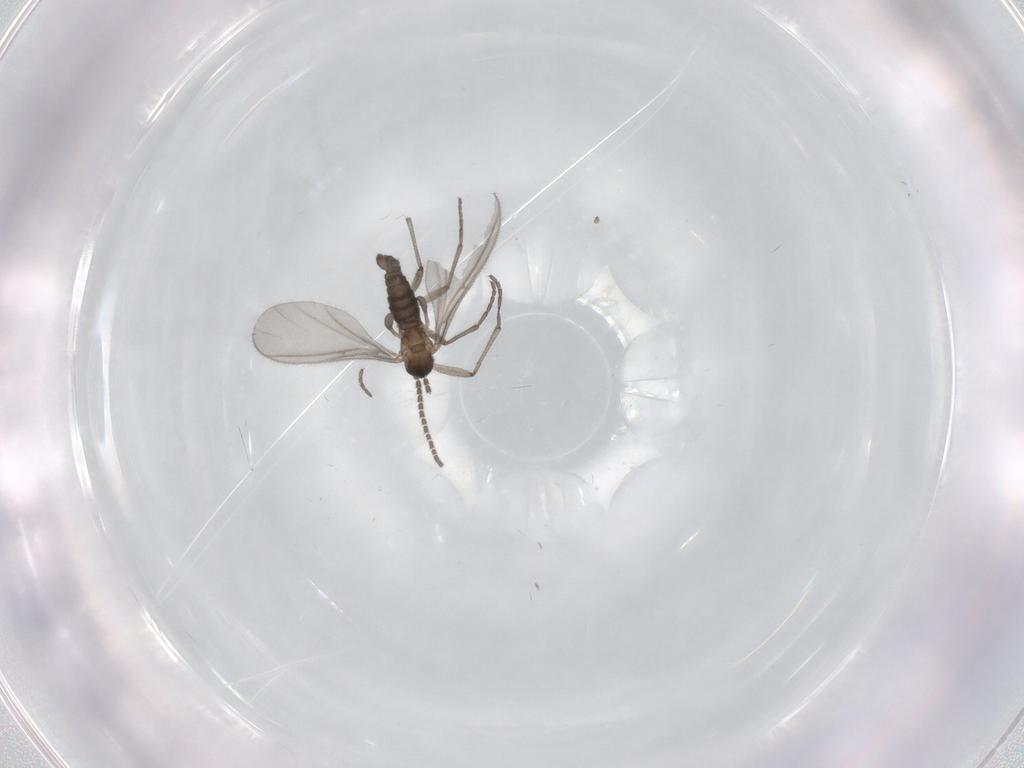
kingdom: Animalia
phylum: Arthropoda
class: Insecta
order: Diptera
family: Sciaridae
